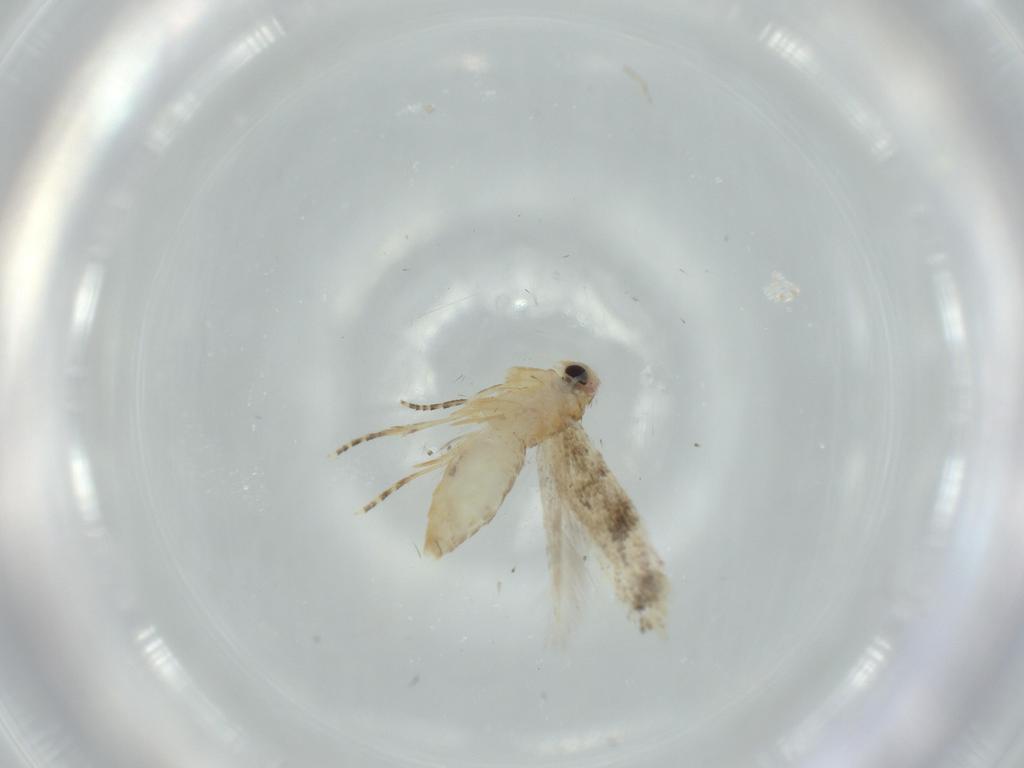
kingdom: Animalia
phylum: Arthropoda
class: Insecta
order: Lepidoptera
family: Bucculatricidae
